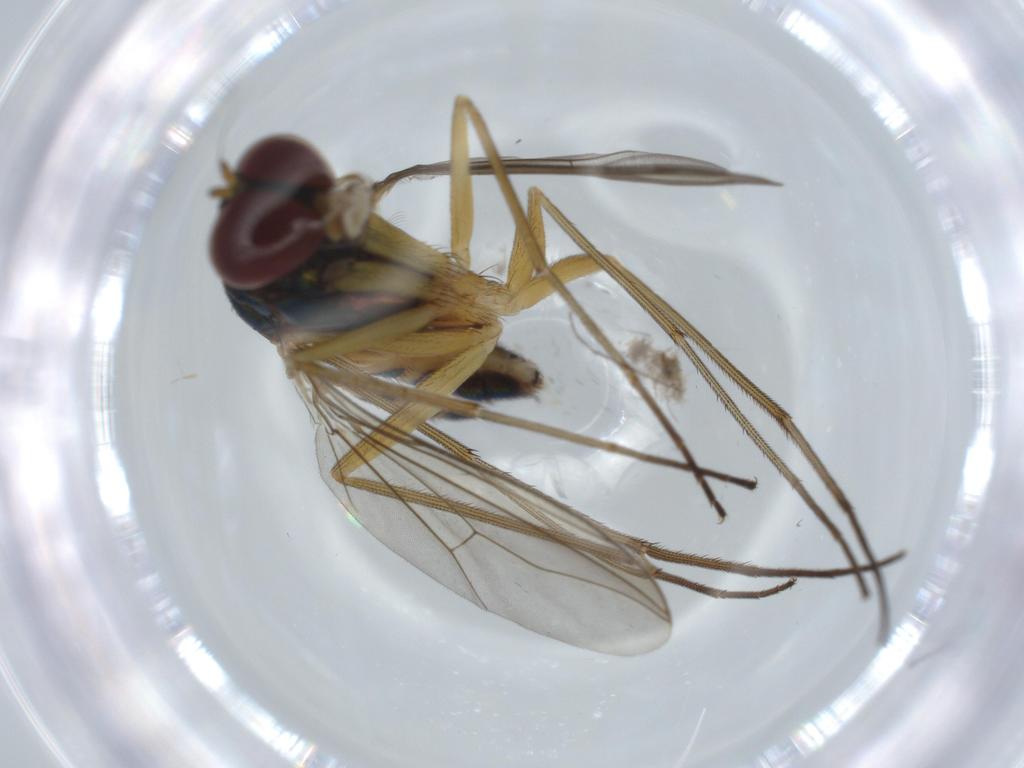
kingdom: Animalia
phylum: Arthropoda
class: Insecta
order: Diptera
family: Dolichopodidae
